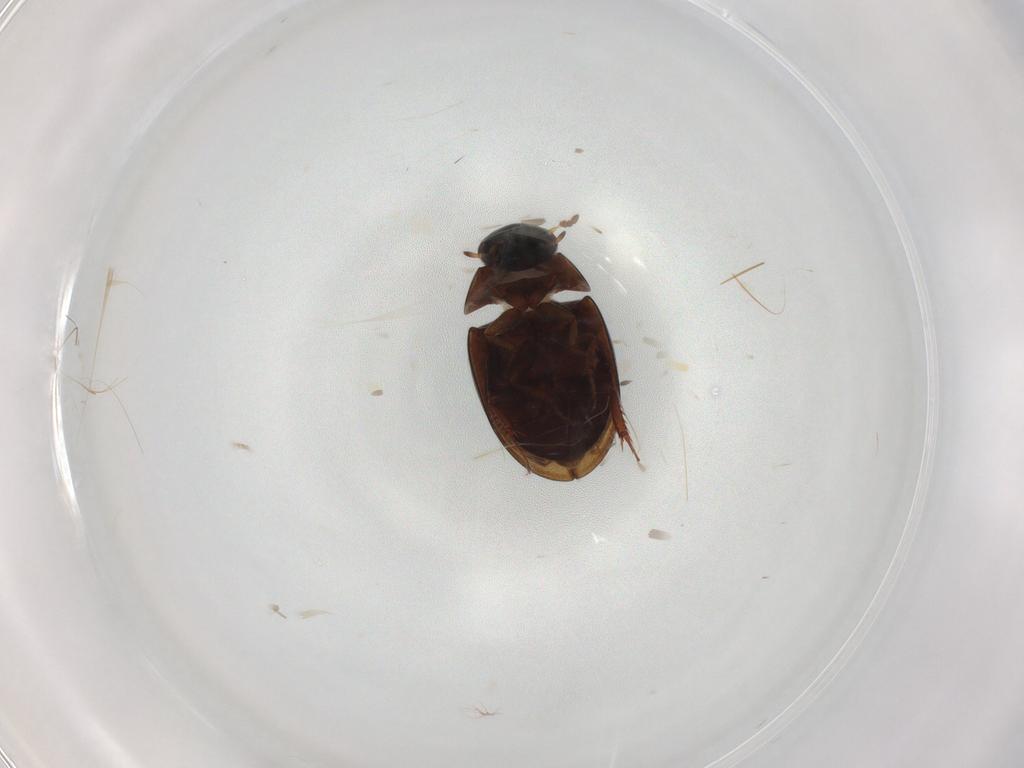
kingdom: Animalia
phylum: Arthropoda
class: Insecta
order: Coleoptera
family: Hydrophilidae
